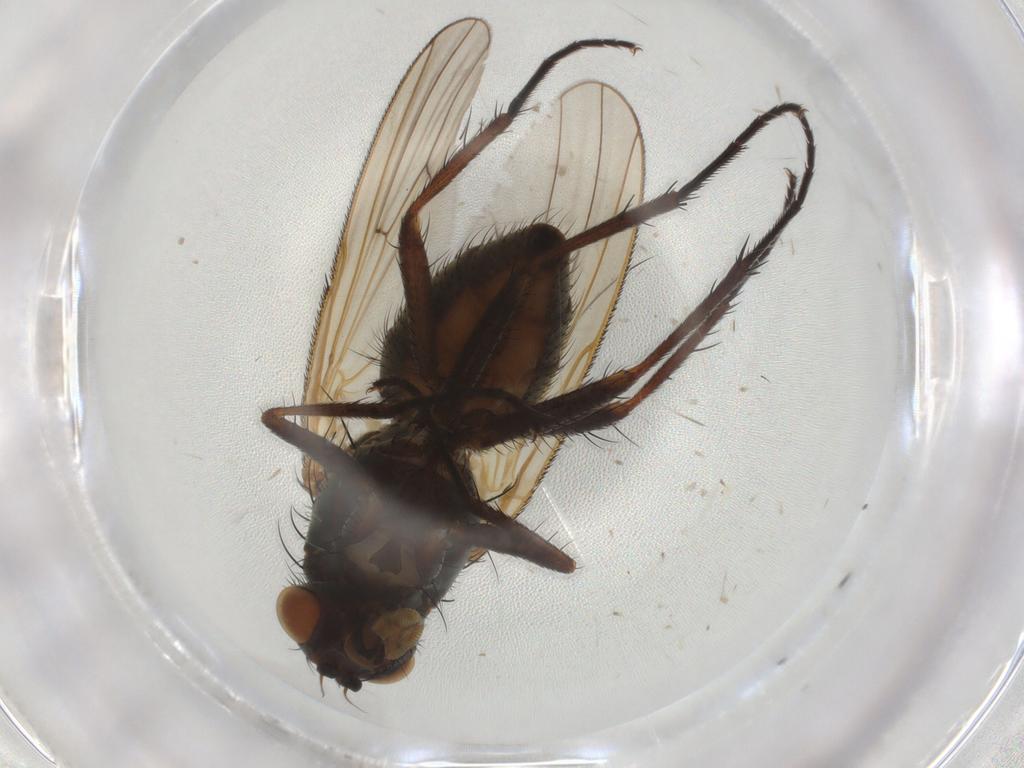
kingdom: Animalia
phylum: Arthropoda
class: Insecta
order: Diptera
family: Anthomyiidae
